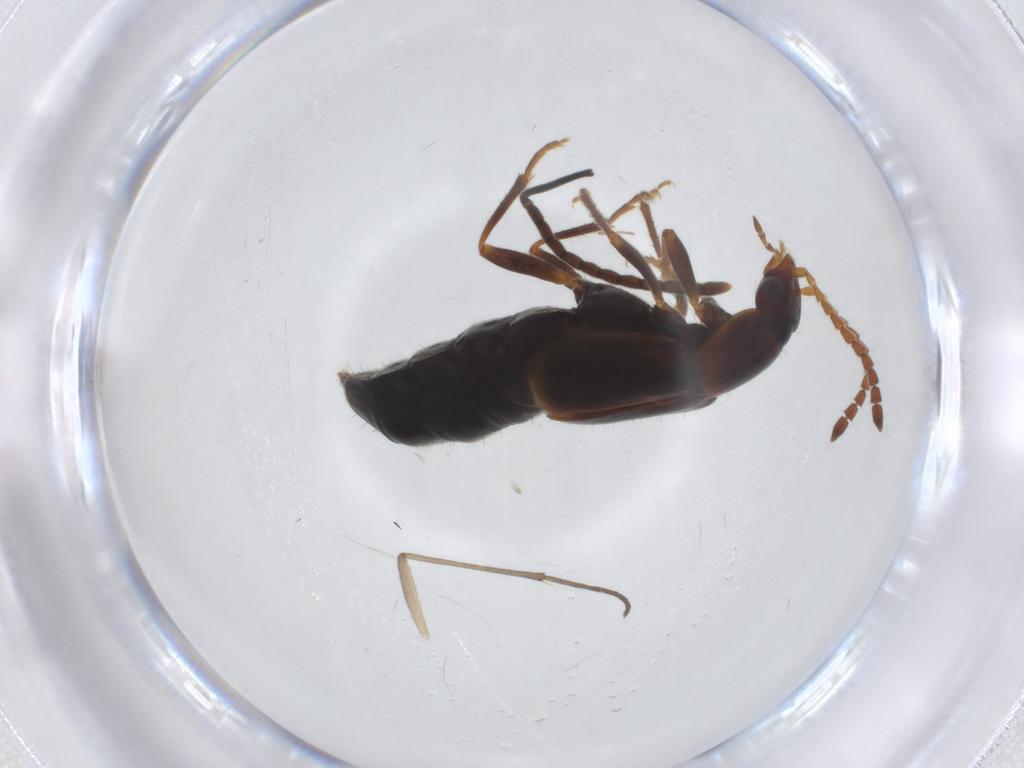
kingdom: Animalia
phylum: Arthropoda
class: Insecta
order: Coleoptera
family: Staphylinidae
